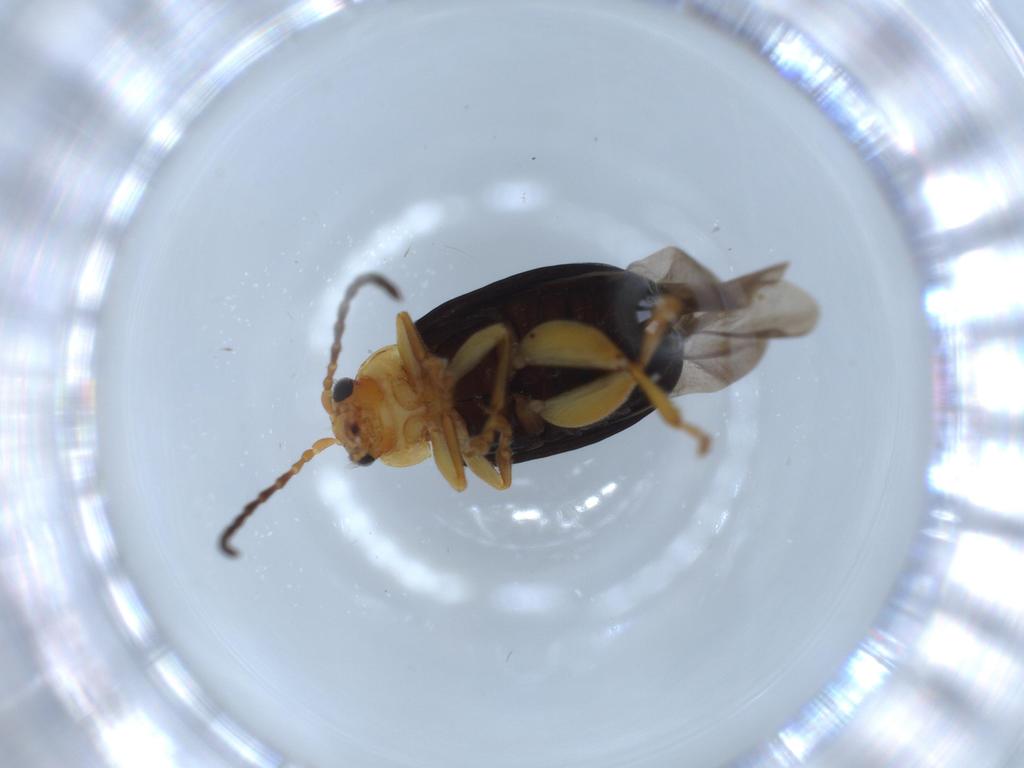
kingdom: Animalia
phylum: Arthropoda
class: Insecta
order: Coleoptera
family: Chrysomelidae
